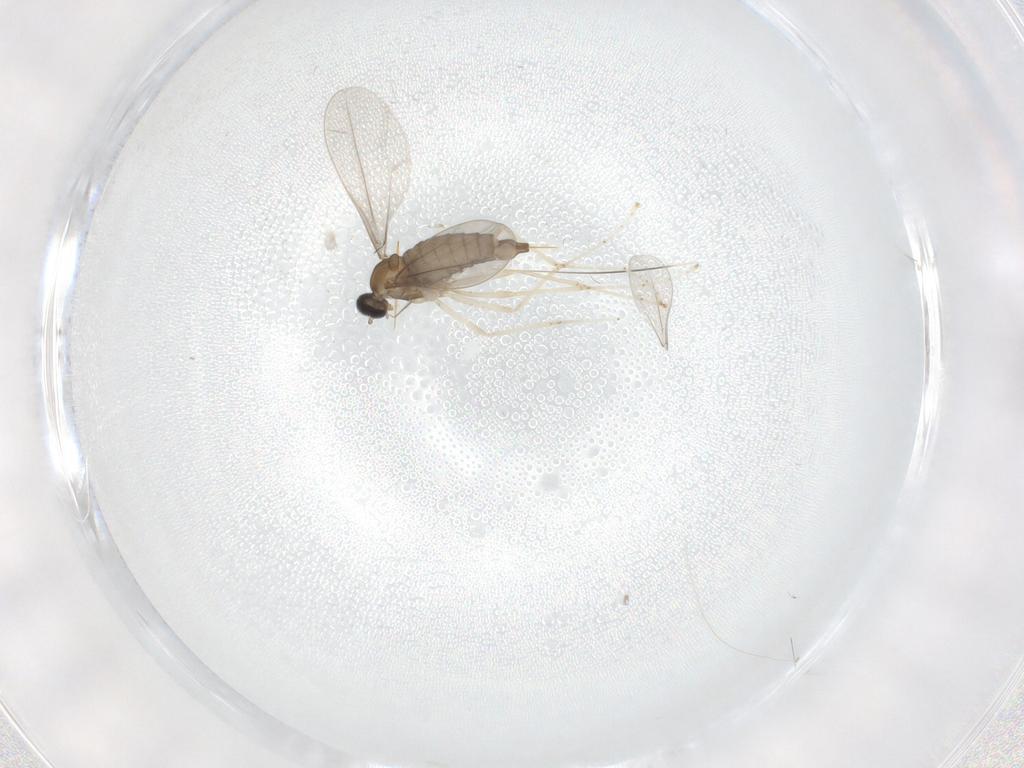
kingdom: Animalia
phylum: Arthropoda
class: Insecta
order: Diptera
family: Cecidomyiidae
